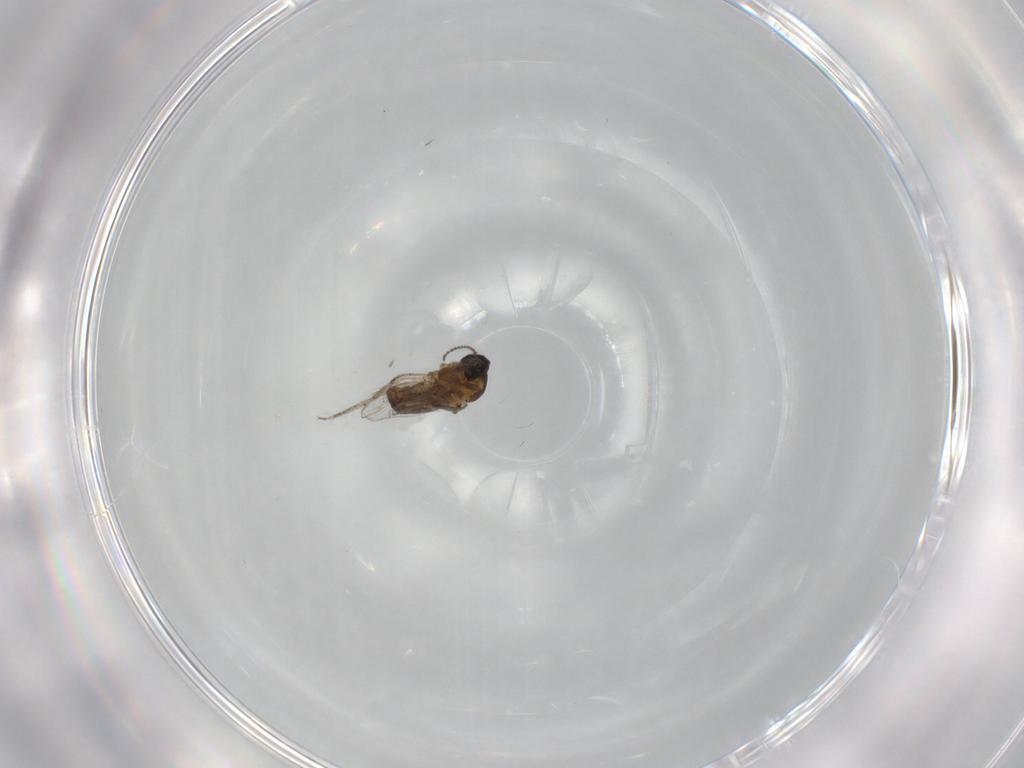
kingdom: Animalia
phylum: Arthropoda
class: Insecta
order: Diptera
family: Ceratopogonidae
